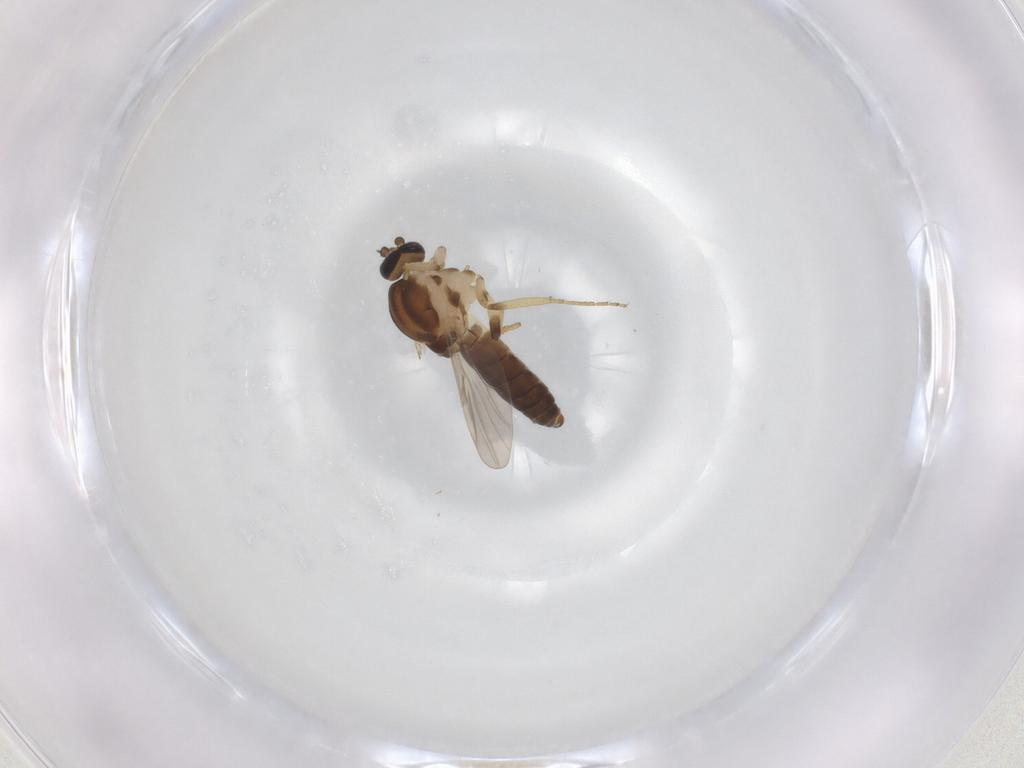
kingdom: Animalia
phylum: Arthropoda
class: Insecta
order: Diptera
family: Ceratopogonidae
